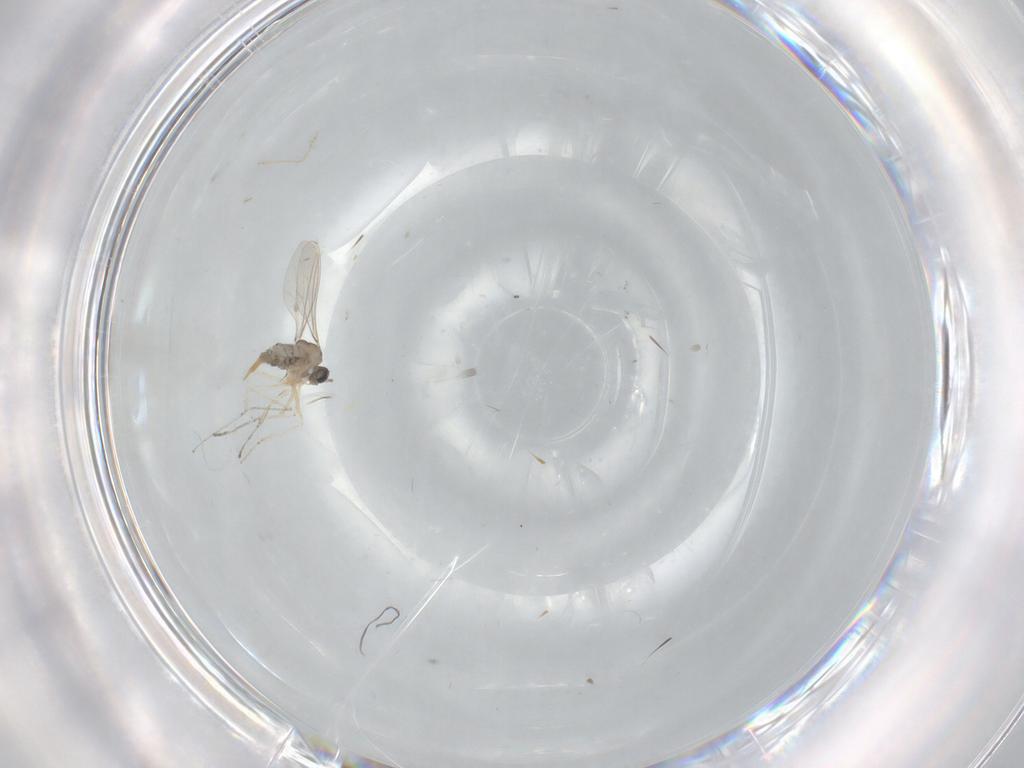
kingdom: Animalia
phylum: Arthropoda
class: Insecta
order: Diptera
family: Cecidomyiidae
